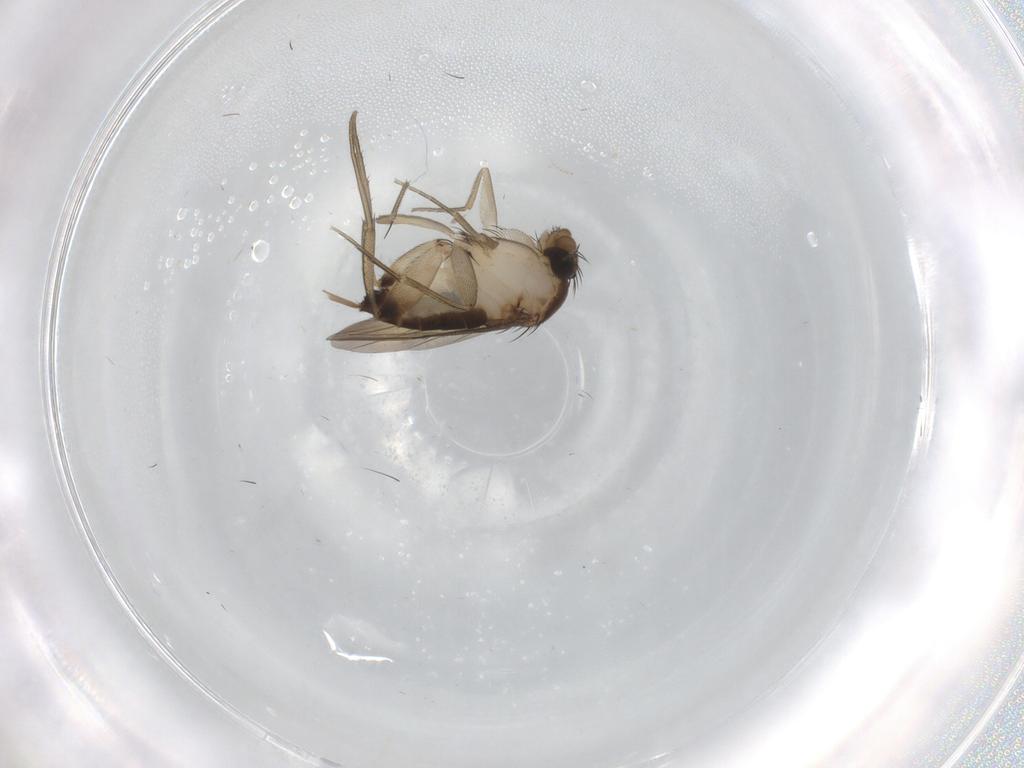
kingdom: Animalia
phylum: Arthropoda
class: Insecta
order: Diptera
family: Phoridae
